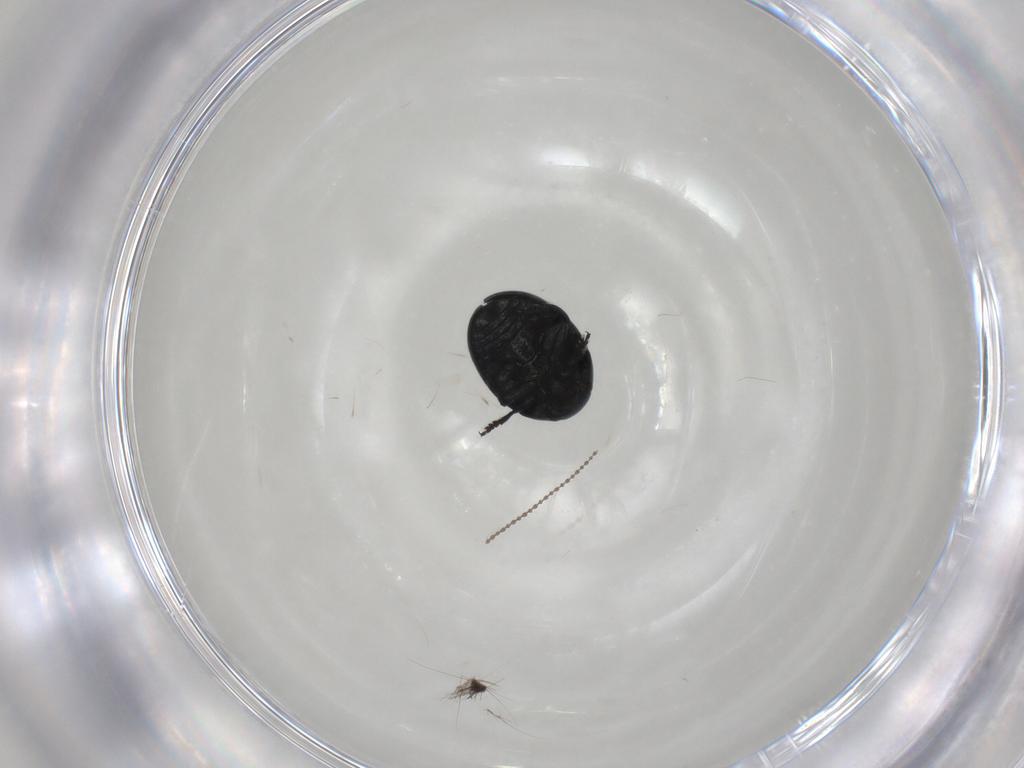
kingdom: Animalia
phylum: Arthropoda
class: Insecta
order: Coleoptera
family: Chrysomelidae
